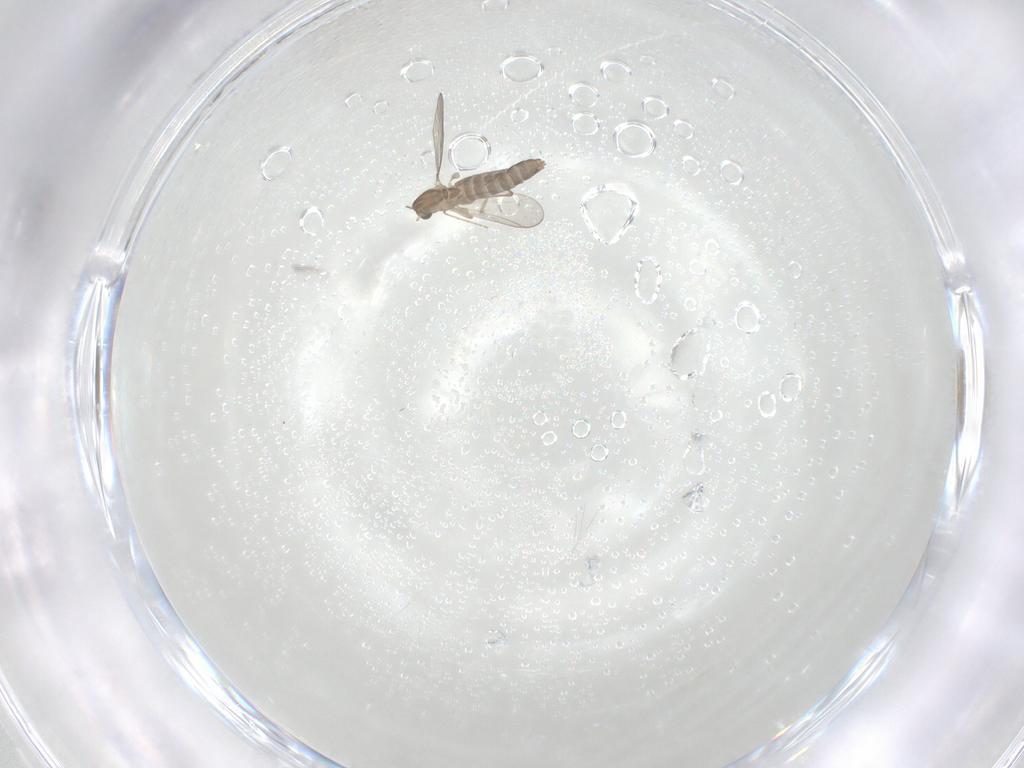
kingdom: Animalia
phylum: Arthropoda
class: Insecta
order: Diptera
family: Chironomidae
